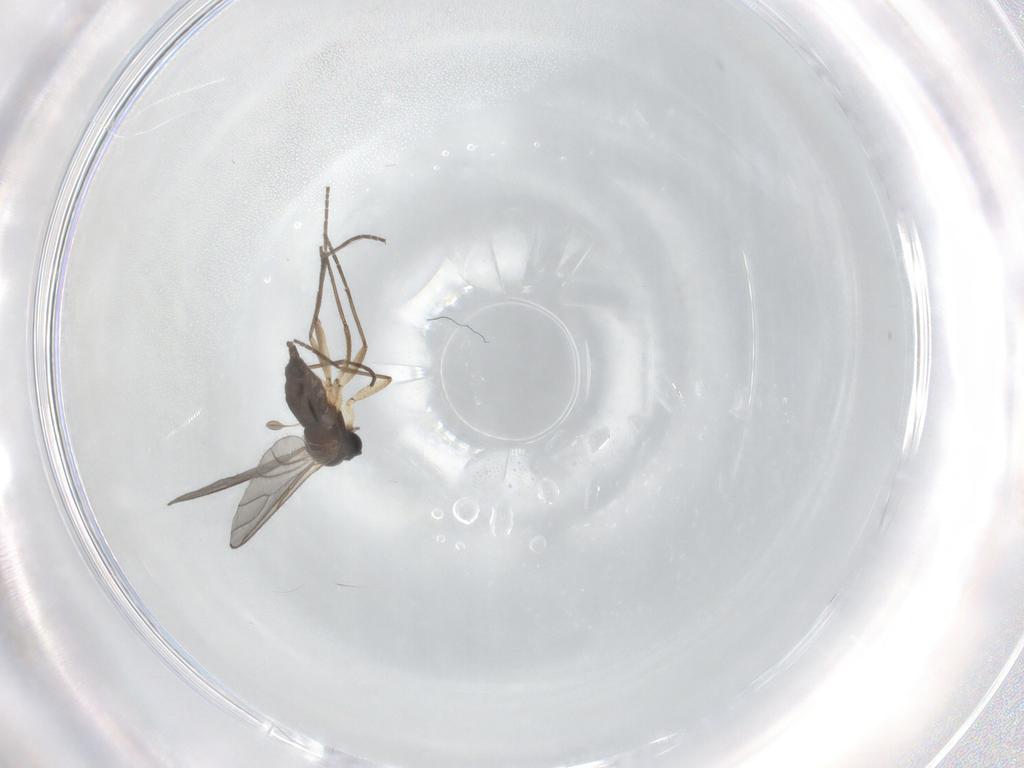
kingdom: Animalia
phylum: Arthropoda
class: Insecta
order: Diptera
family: Sciaridae
